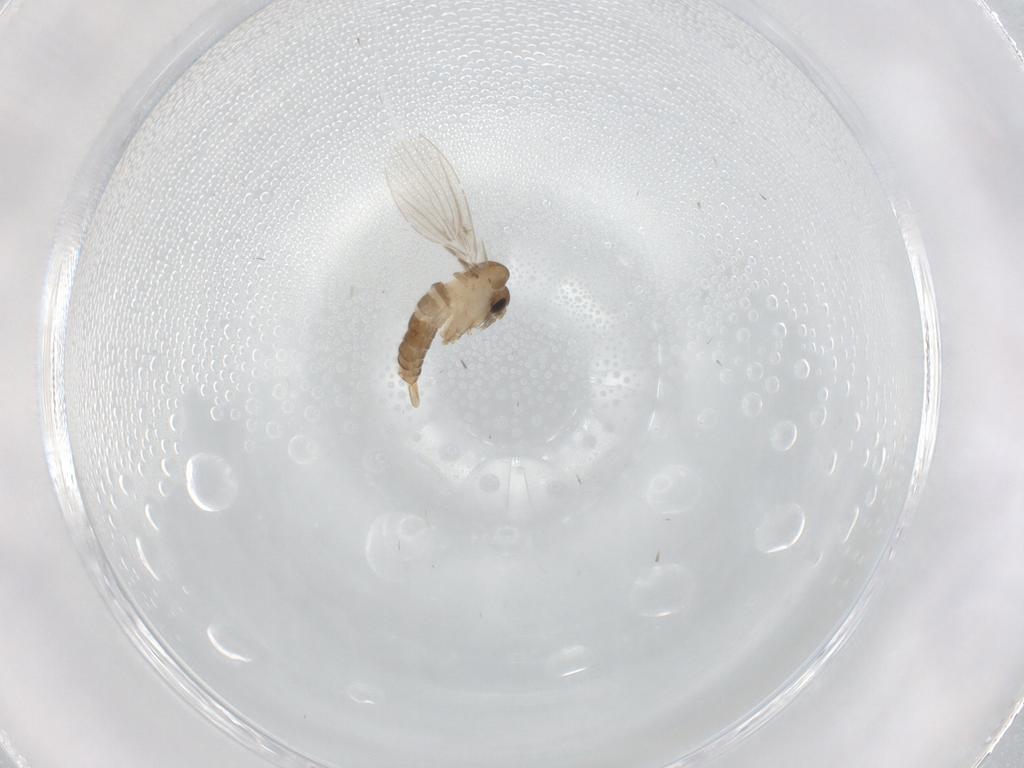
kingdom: Animalia
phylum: Arthropoda
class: Insecta
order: Diptera
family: Psychodidae
